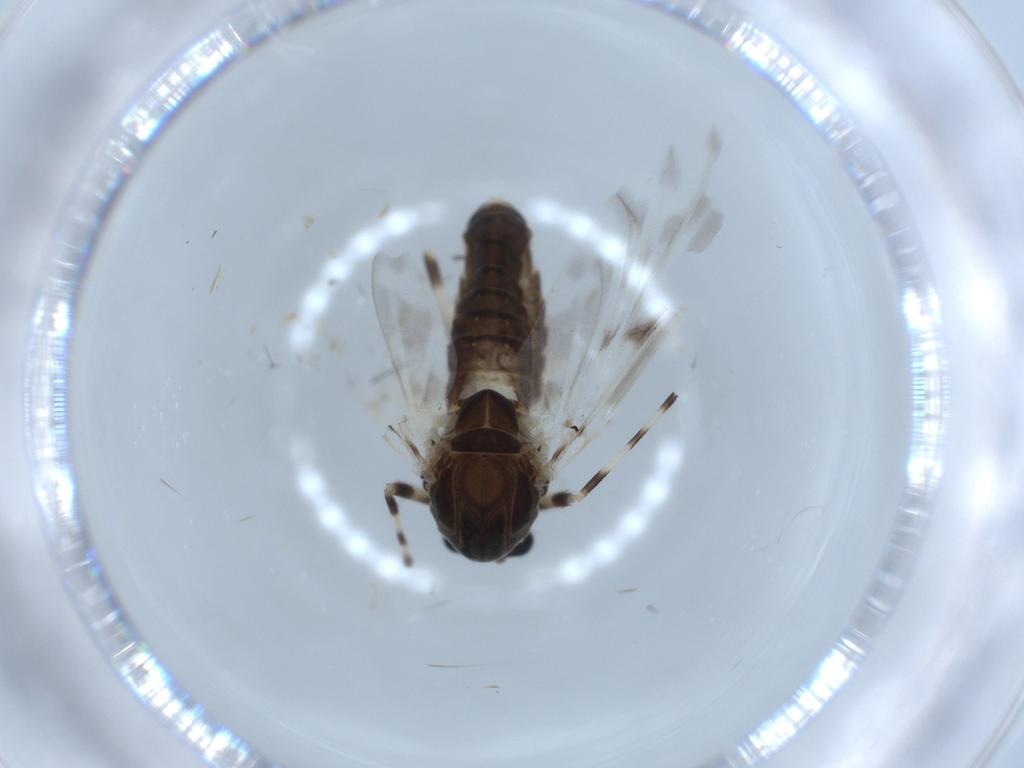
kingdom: Animalia
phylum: Arthropoda
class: Insecta
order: Diptera
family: Chironomidae
